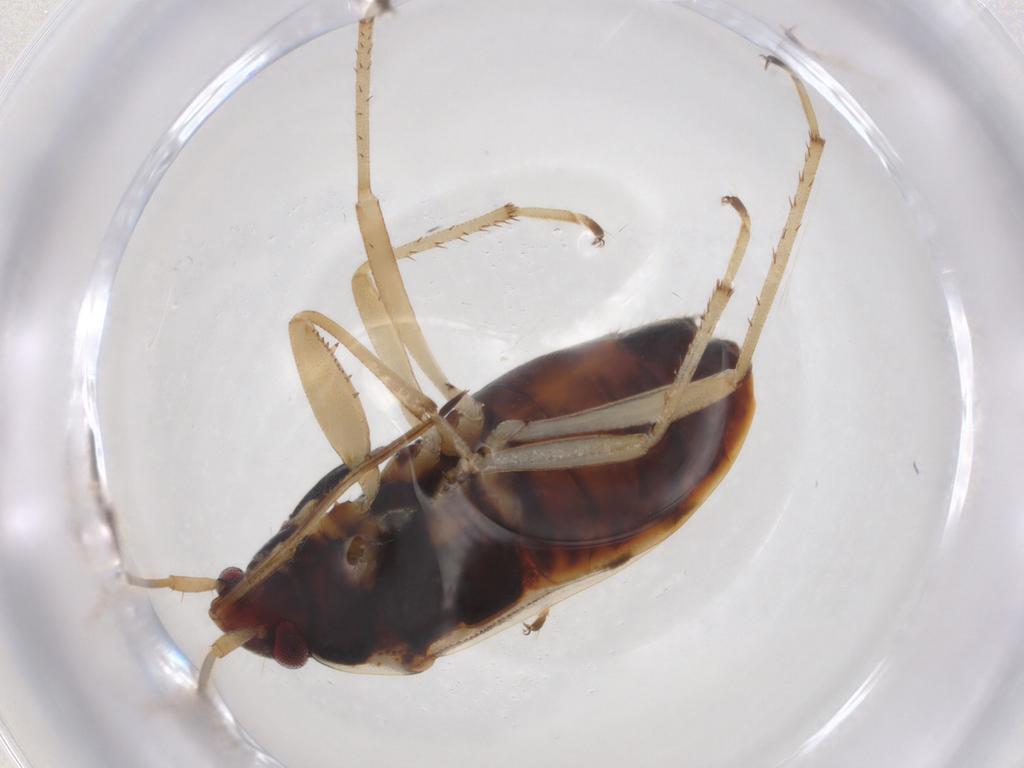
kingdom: Animalia
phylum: Arthropoda
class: Insecta
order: Hemiptera
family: Rhyparochromidae
